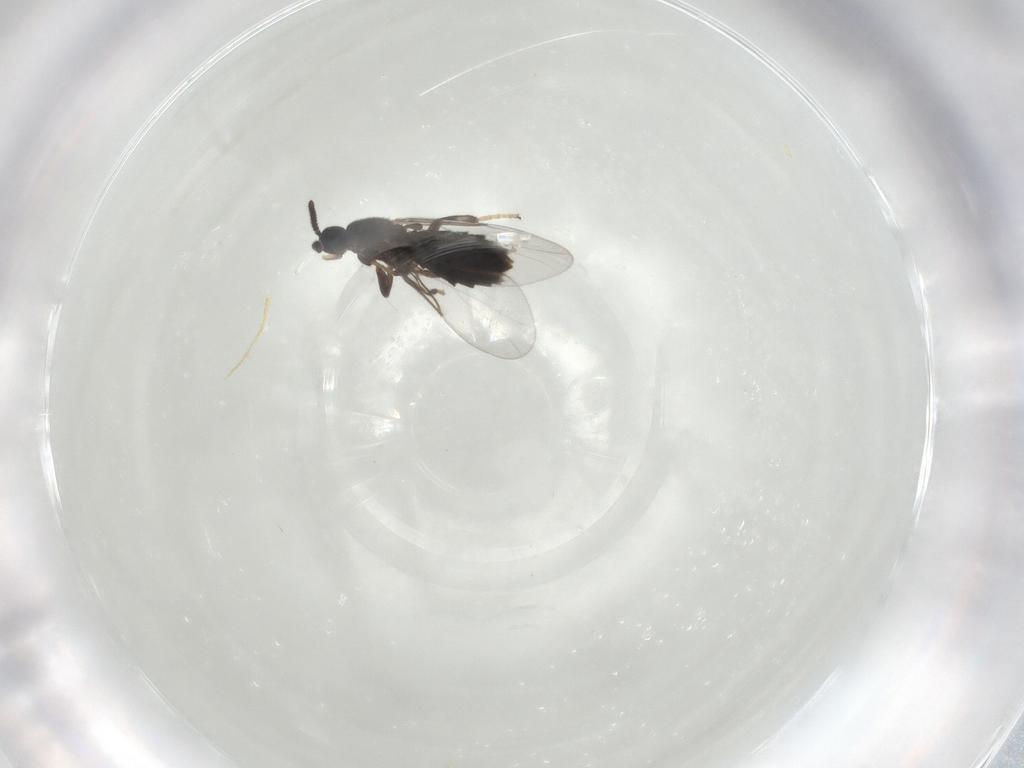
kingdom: Animalia
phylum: Arthropoda
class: Insecta
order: Diptera
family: Scatopsidae
